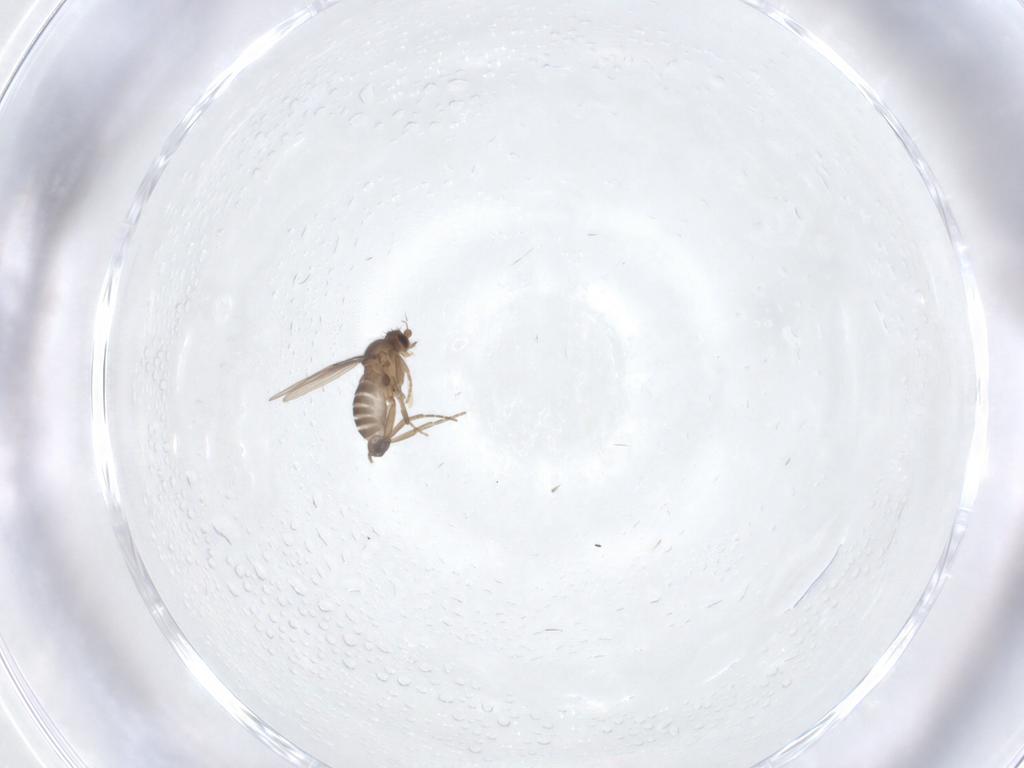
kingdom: Animalia
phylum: Arthropoda
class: Insecta
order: Diptera
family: Phoridae
